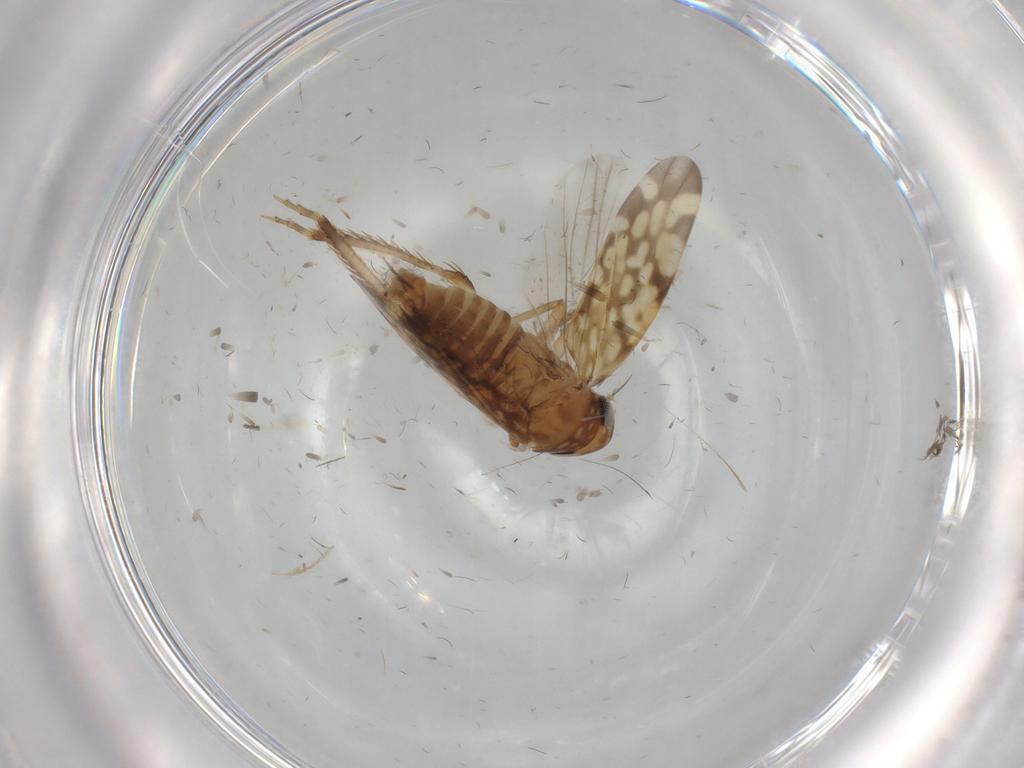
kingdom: Animalia
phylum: Arthropoda
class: Insecta
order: Hemiptera
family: Cicadellidae
